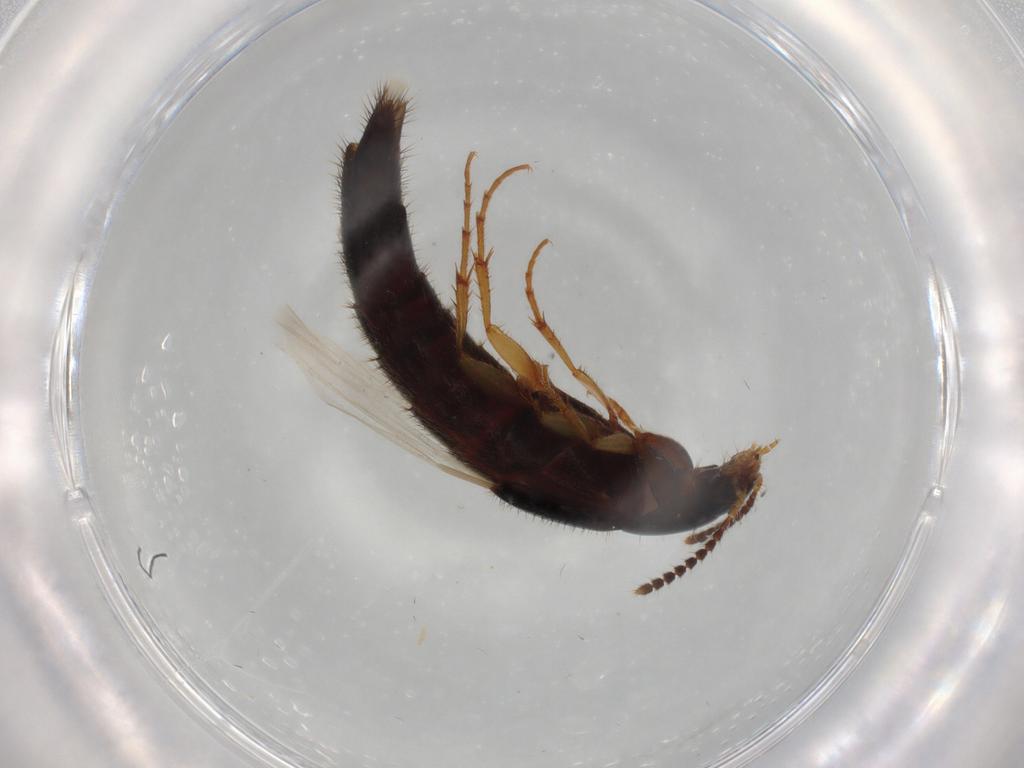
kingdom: Animalia
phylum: Arthropoda
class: Insecta
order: Coleoptera
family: Staphylinidae
